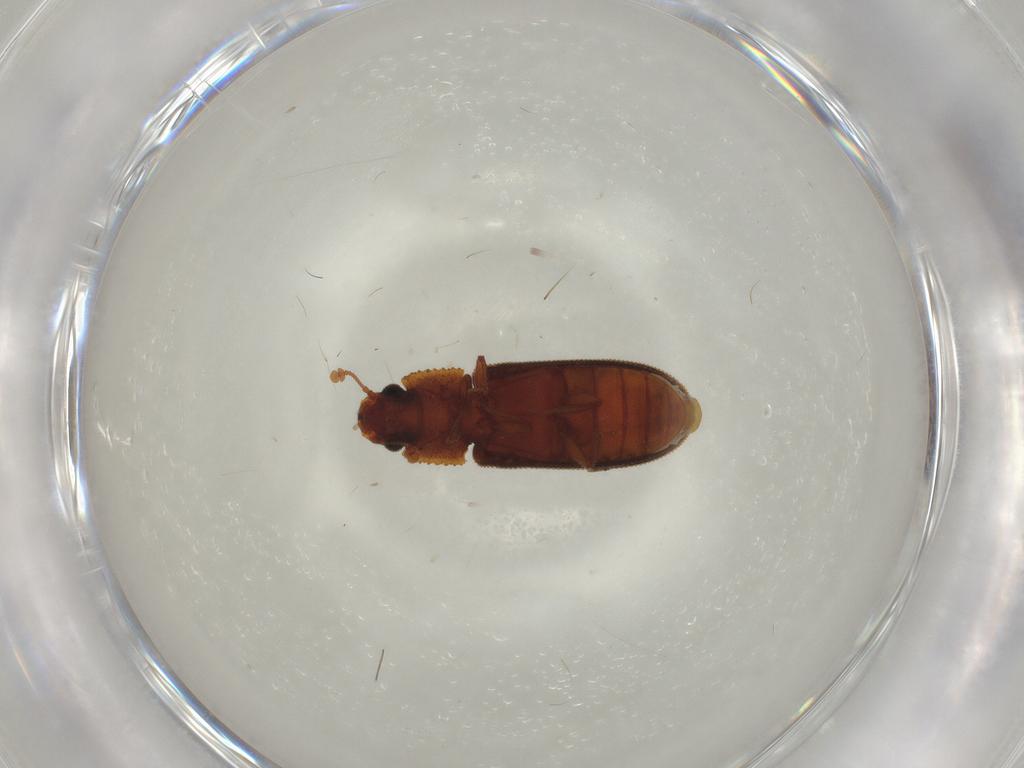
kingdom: Animalia
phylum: Arthropoda
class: Insecta
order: Coleoptera
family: Zopheridae
